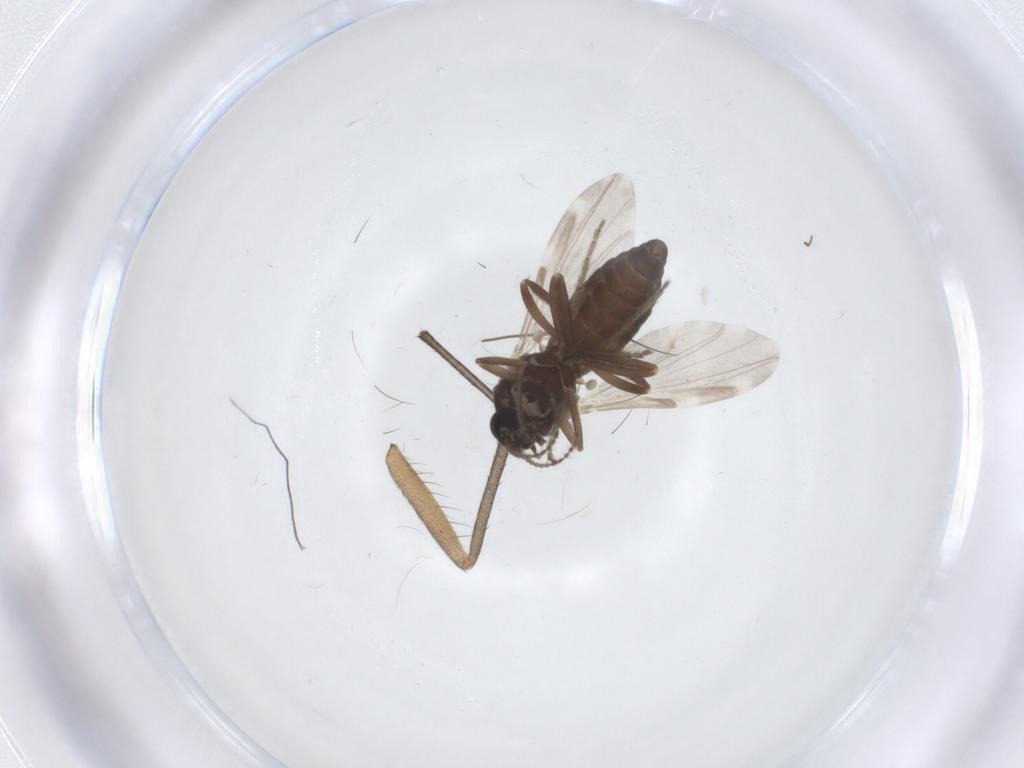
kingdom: Animalia
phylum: Arthropoda
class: Insecta
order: Diptera
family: Ceratopogonidae
